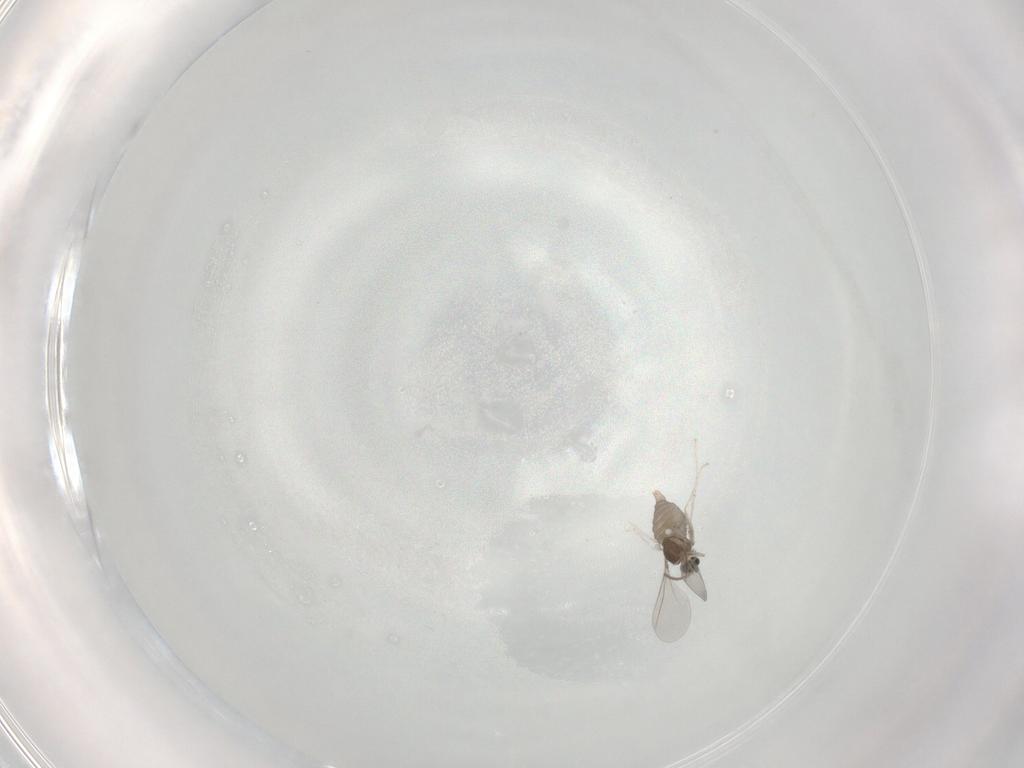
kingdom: Animalia
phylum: Arthropoda
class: Insecta
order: Diptera
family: Cecidomyiidae
